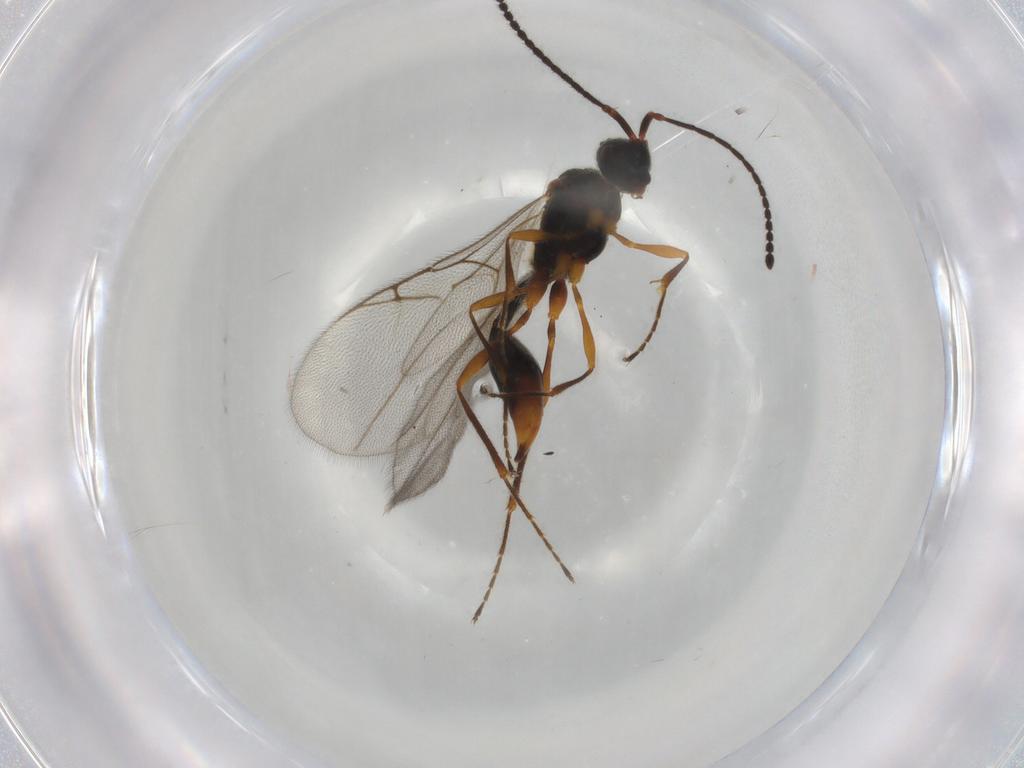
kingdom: Animalia
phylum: Arthropoda
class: Insecta
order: Hymenoptera
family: Diapriidae
